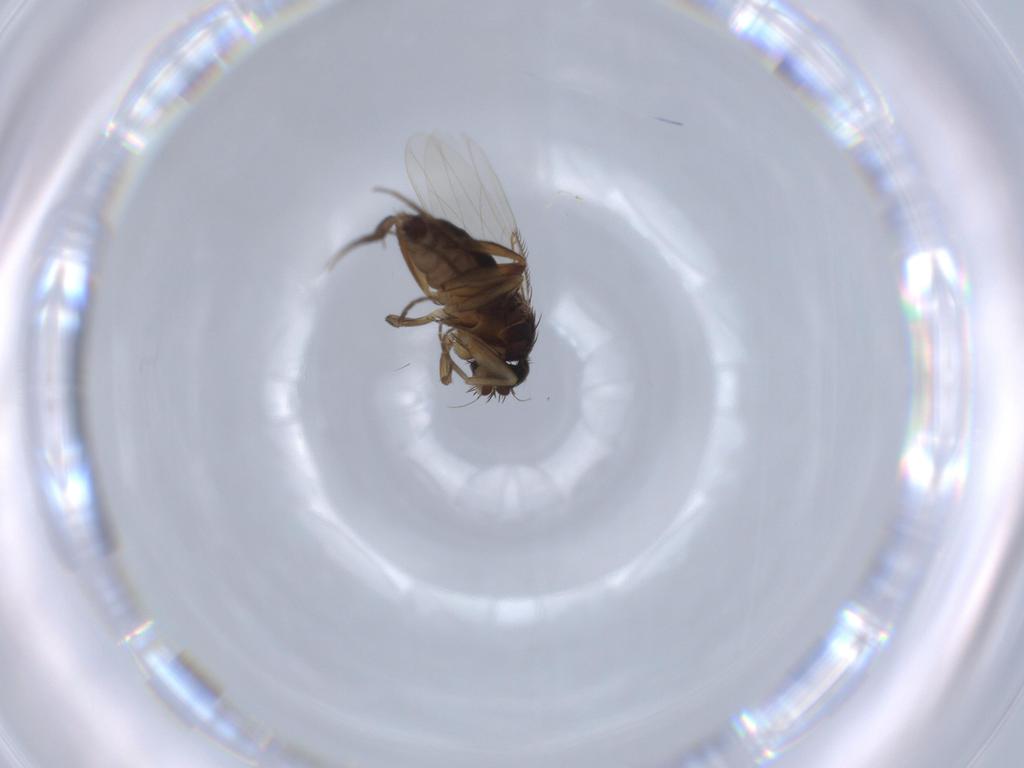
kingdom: Animalia
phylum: Arthropoda
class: Insecta
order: Diptera
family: Phoridae
